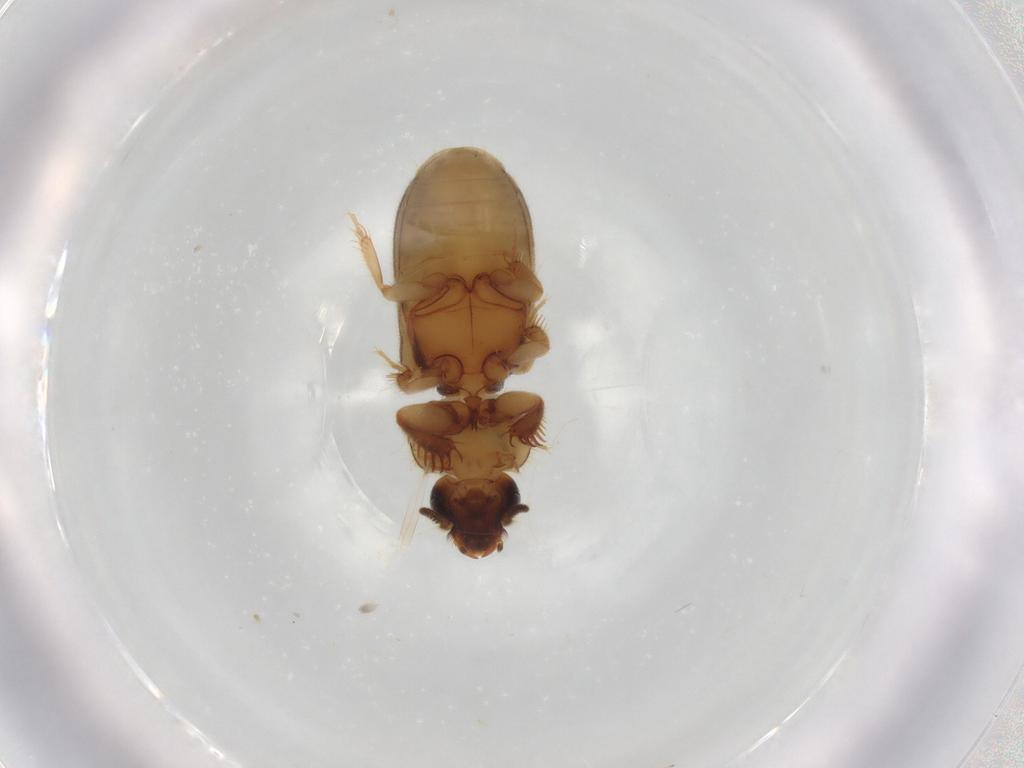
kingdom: Animalia
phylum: Arthropoda
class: Insecta
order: Coleoptera
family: Heteroceridae
